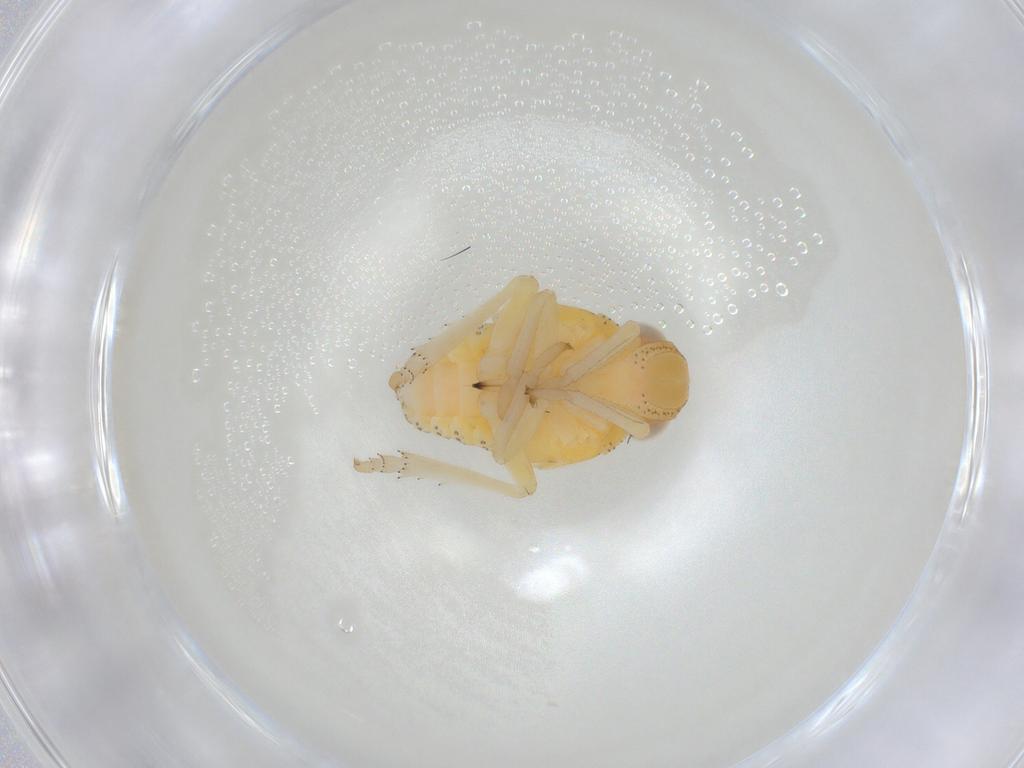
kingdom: Animalia
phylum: Arthropoda
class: Insecta
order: Hemiptera
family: Tropiduchidae
